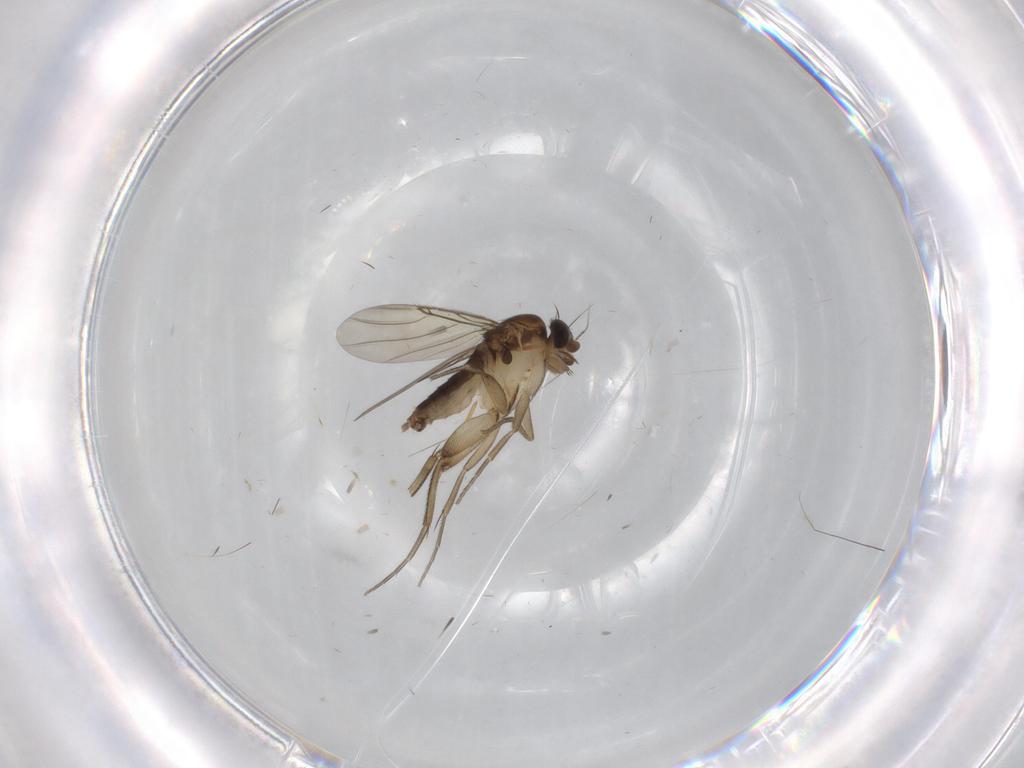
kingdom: Animalia
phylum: Arthropoda
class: Insecta
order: Diptera
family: Phoridae
